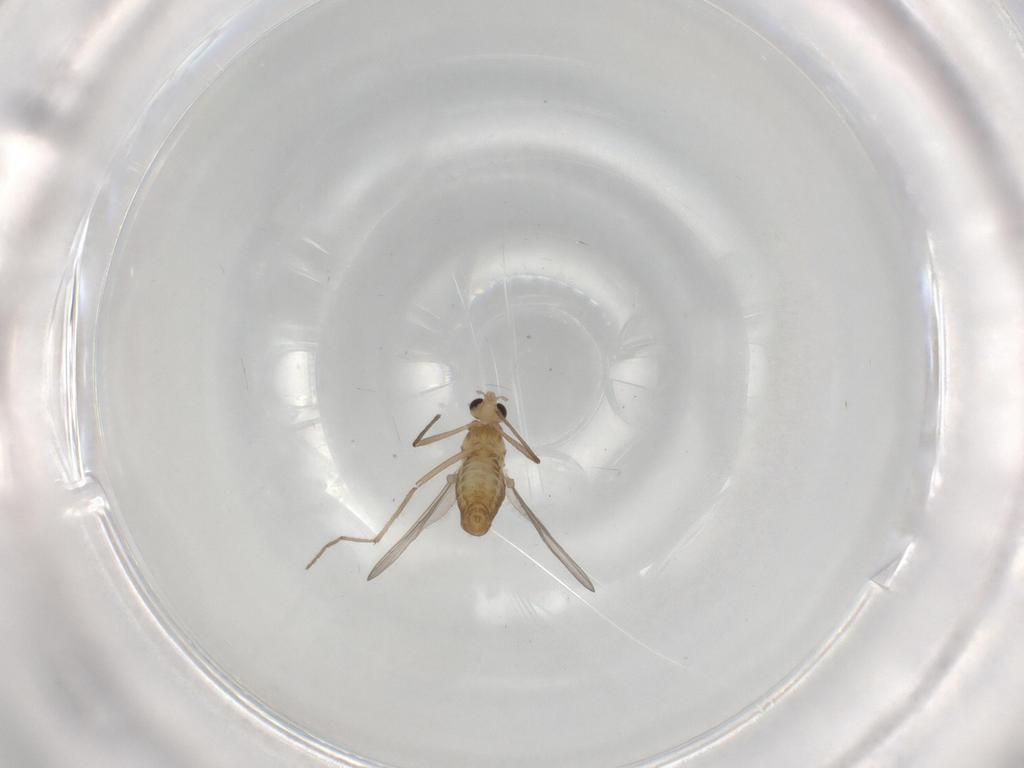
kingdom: Animalia
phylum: Arthropoda
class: Insecta
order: Diptera
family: Chironomidae
